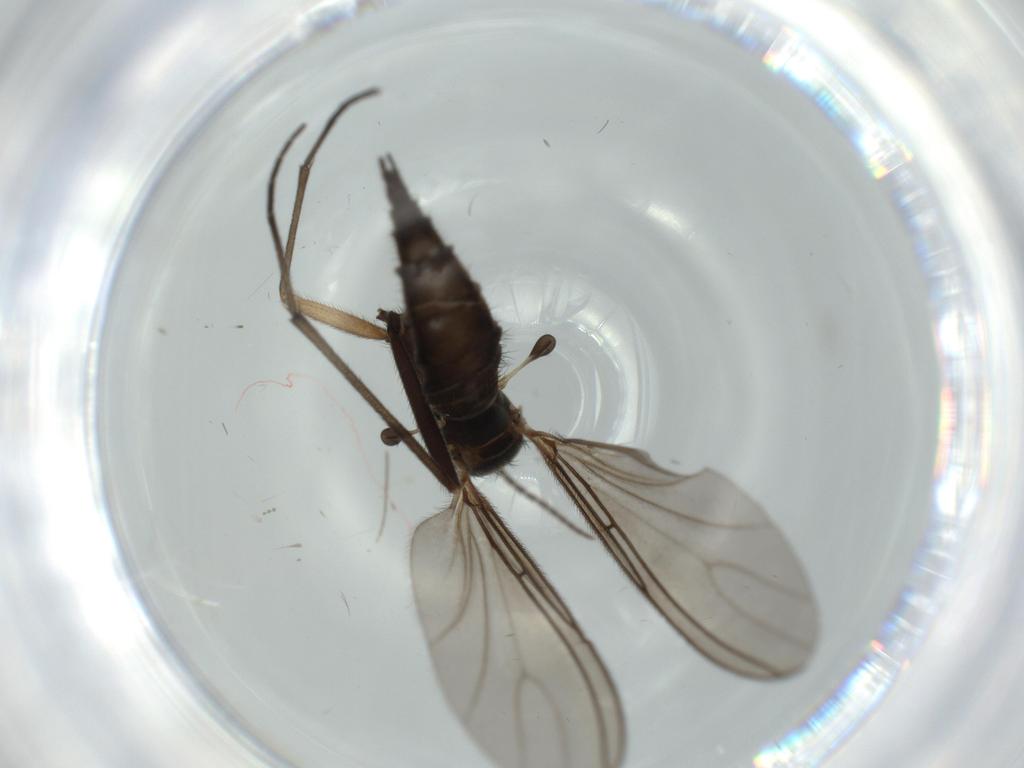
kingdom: Animalia
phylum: Arthropoda
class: Insecta
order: Diptera
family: Sciaridae
